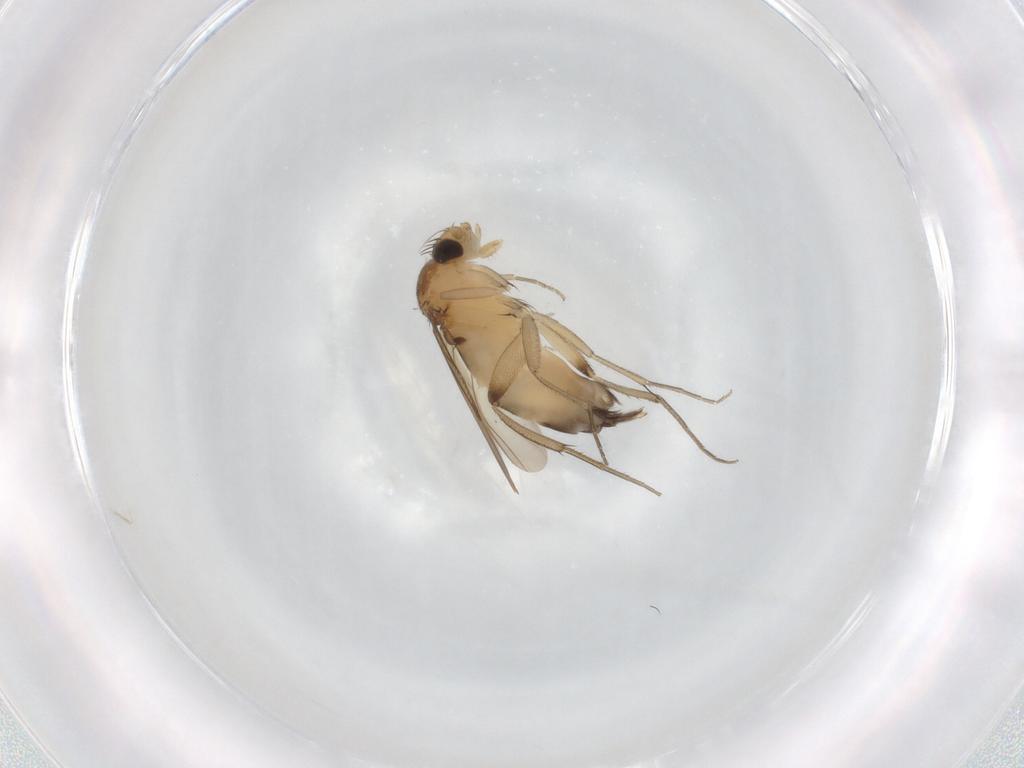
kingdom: Animalia
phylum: Arthropoda
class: Insecta
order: Diptera
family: Phoridae
